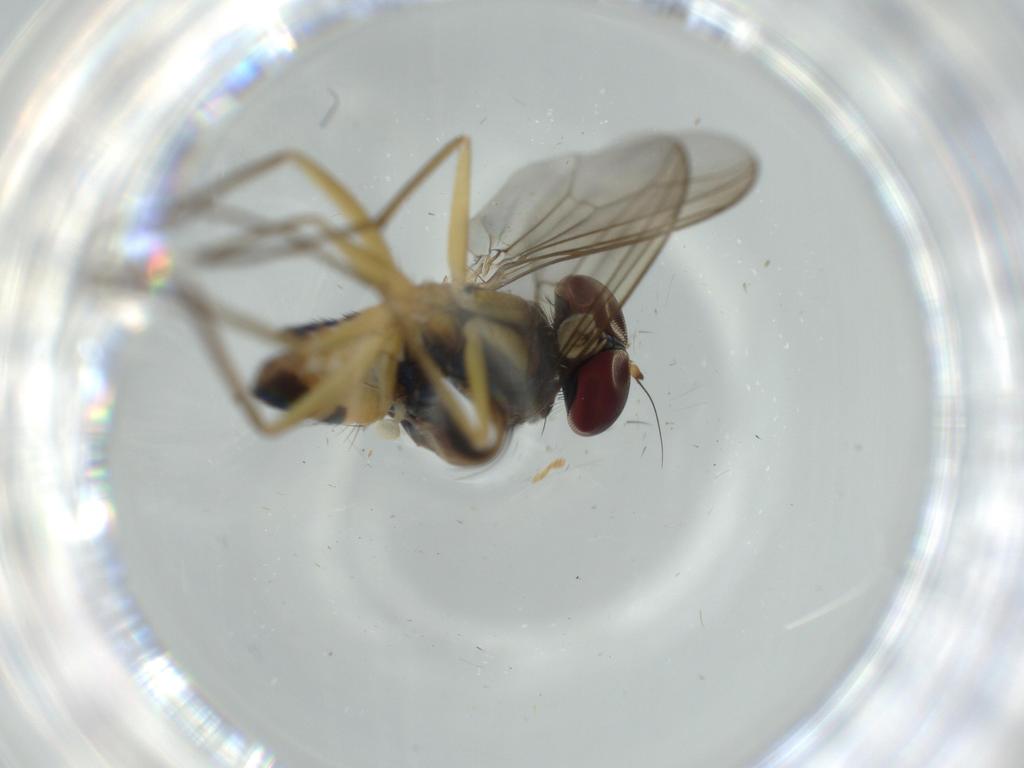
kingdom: Animalia
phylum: Arthropoda
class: Insecta
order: Diptera
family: Dolichopodidae
